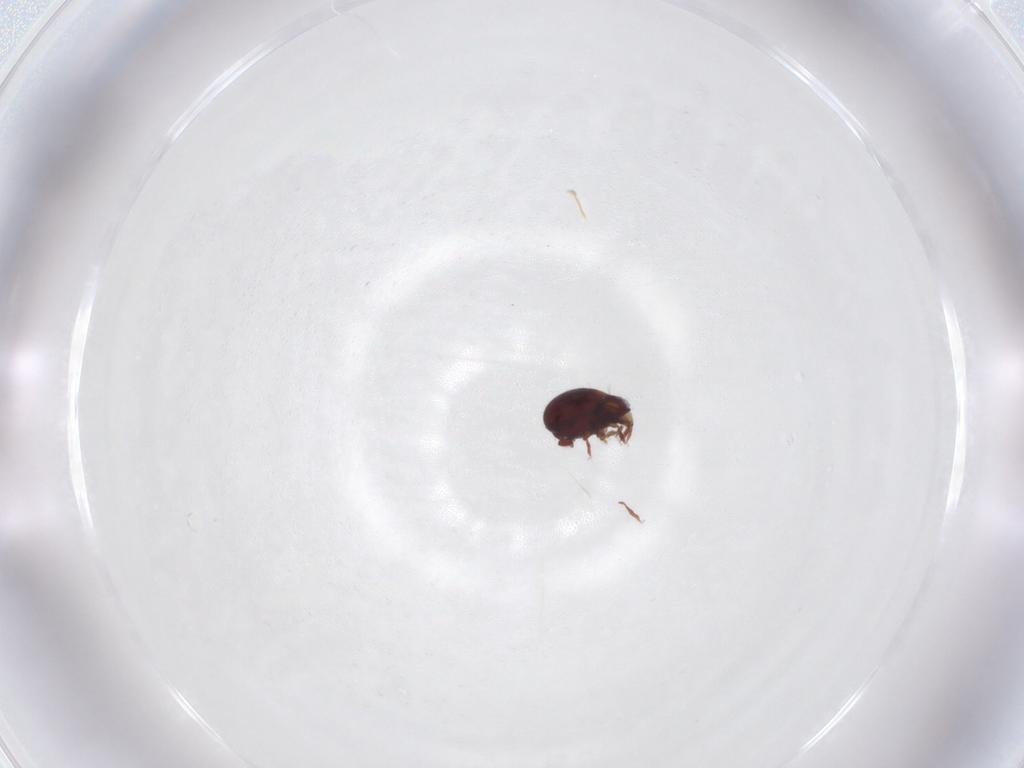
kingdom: Animalia
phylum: Arthropoda
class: Arachnida
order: Sarcoptiformes
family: Humerobatidae
